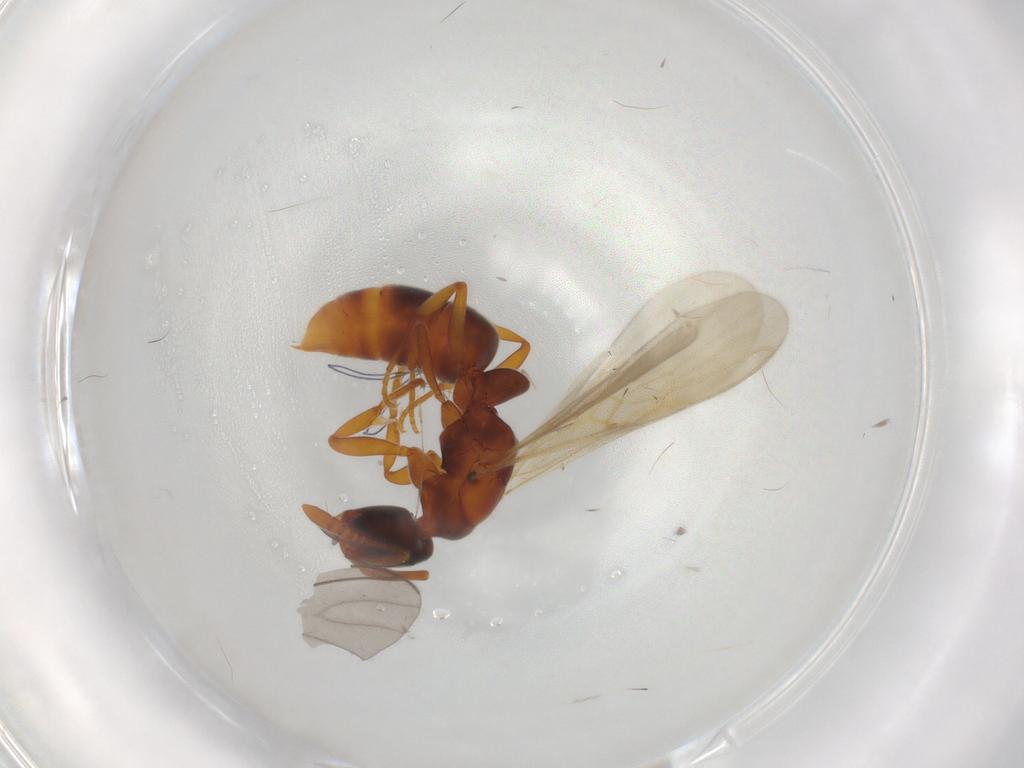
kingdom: Animalia
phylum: Arthropoda
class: Insecta
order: Hymenoptera
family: Formicidae
